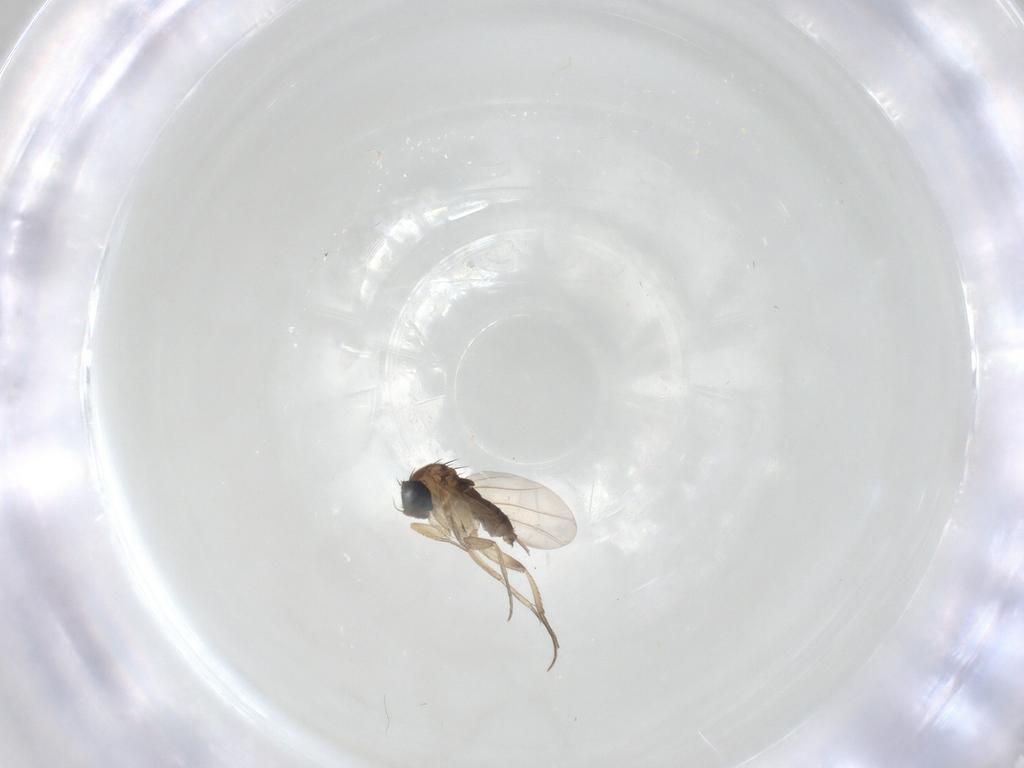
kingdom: Animalia
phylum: Arthropoda
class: Insecta
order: Diptera
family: Phoridae
